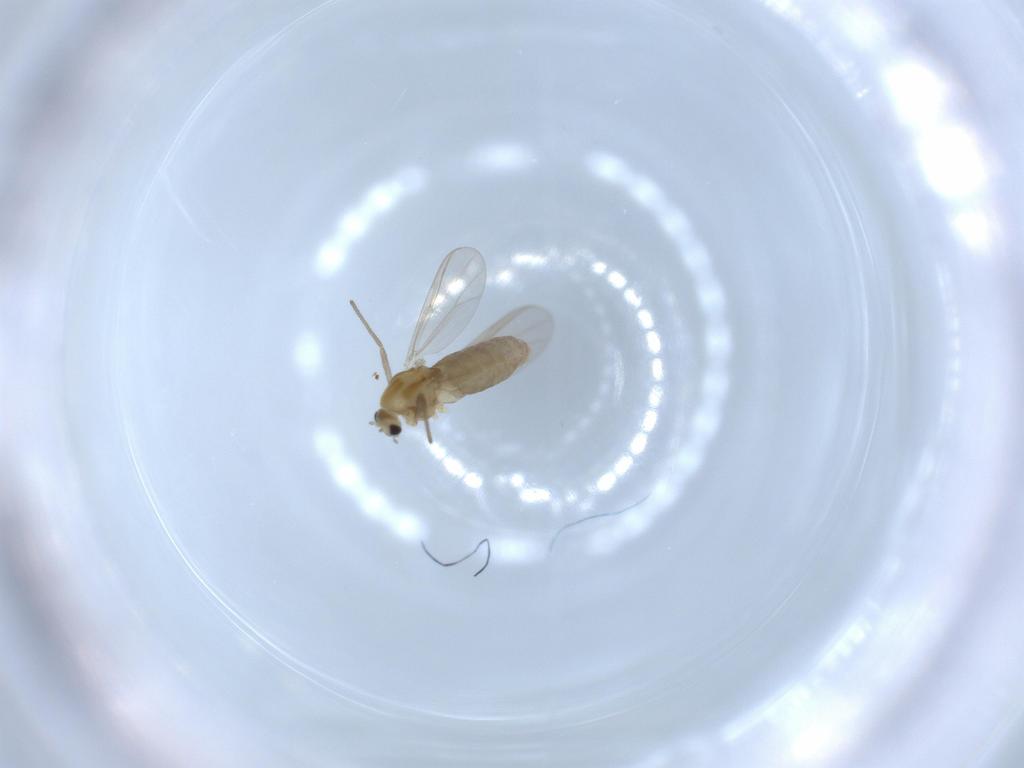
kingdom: Animalia
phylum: Arthropoda
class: Insecta
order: Diptera
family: Chironomidae
